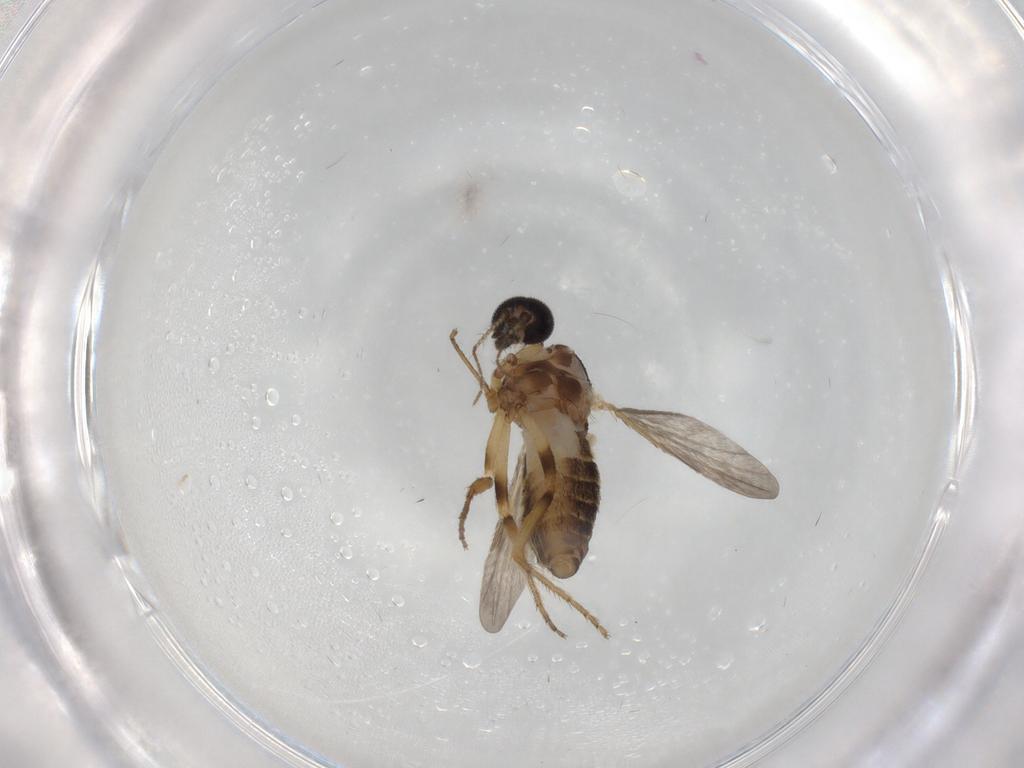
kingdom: Animalia
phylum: Arthropoda
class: Insecta
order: Diptera
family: Ceratopogonidae
